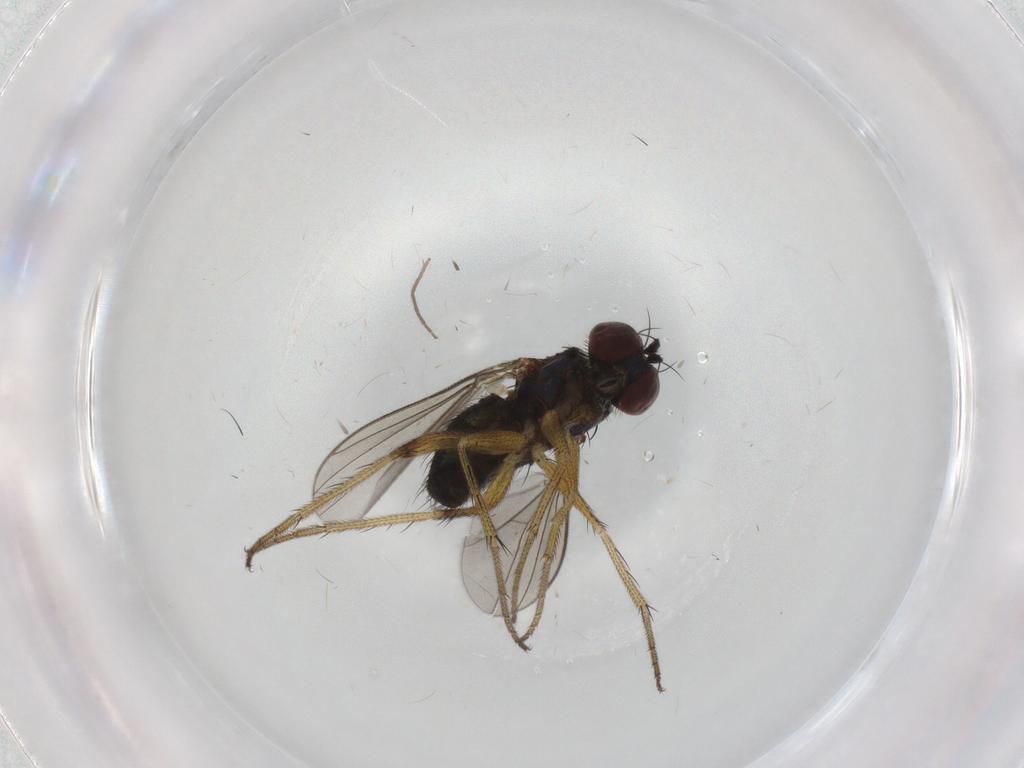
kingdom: Animalia
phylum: Arthropoda
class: Insecta
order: Diptera
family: Dolichopodidae
